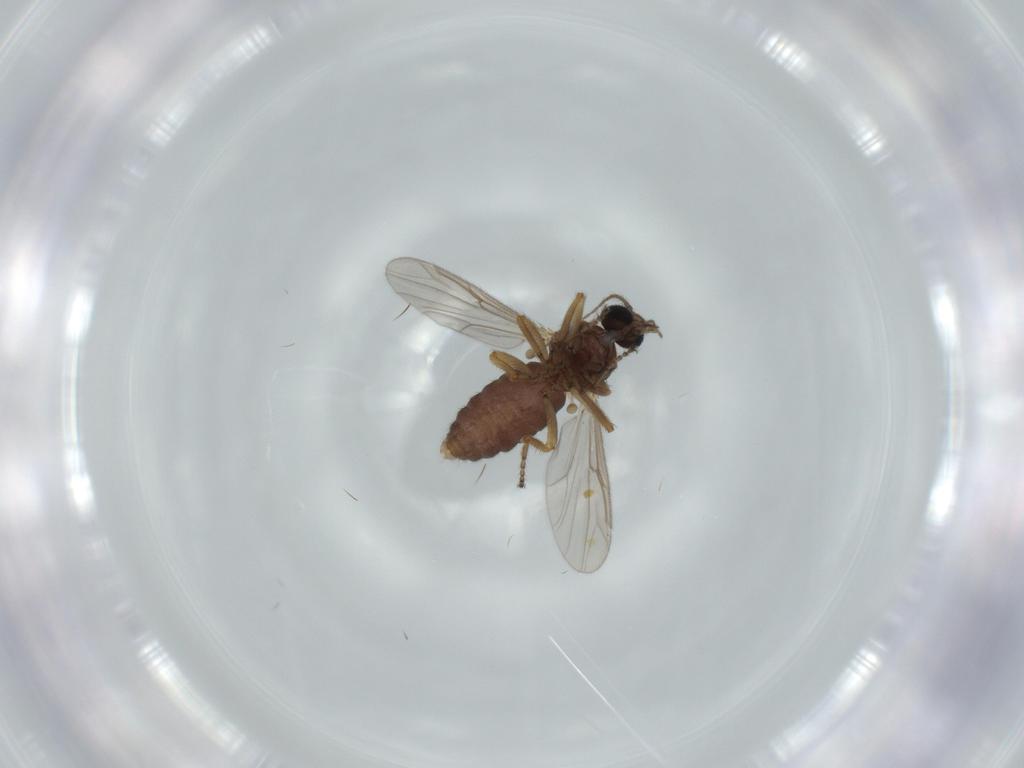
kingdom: Animalia
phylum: Arthropoda
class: Insecta
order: Diptera
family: Ceratopogonidae
